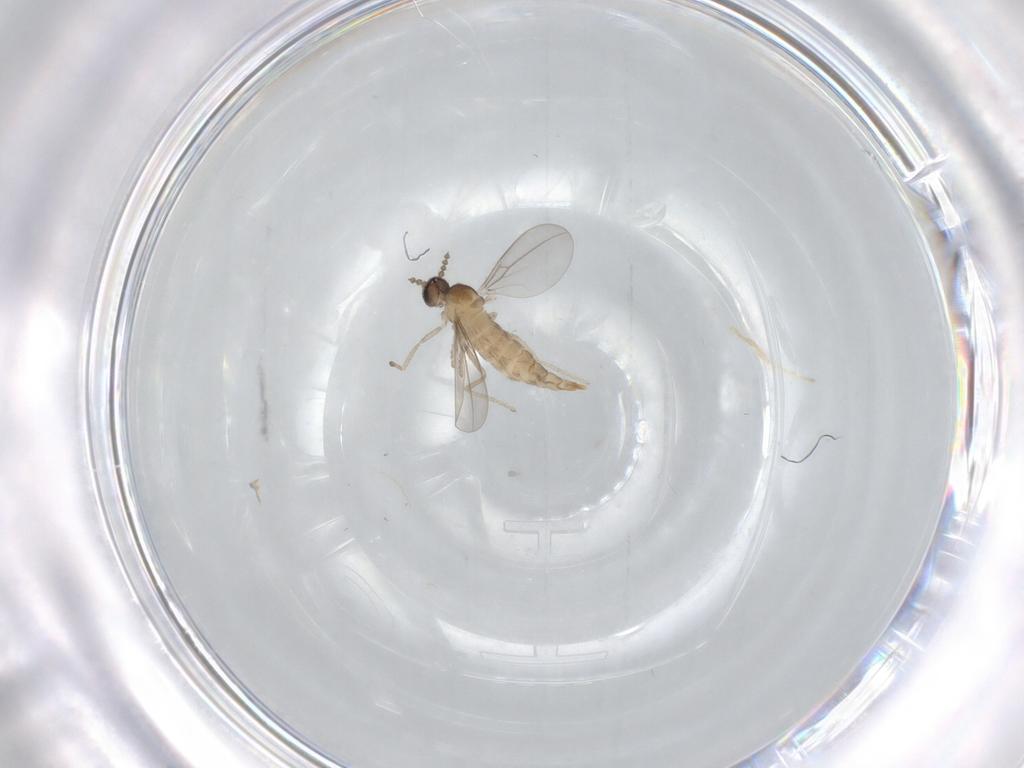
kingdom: Animalia
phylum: Arthropoda
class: Insecta
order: Diptera
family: Cecidomyiidae
